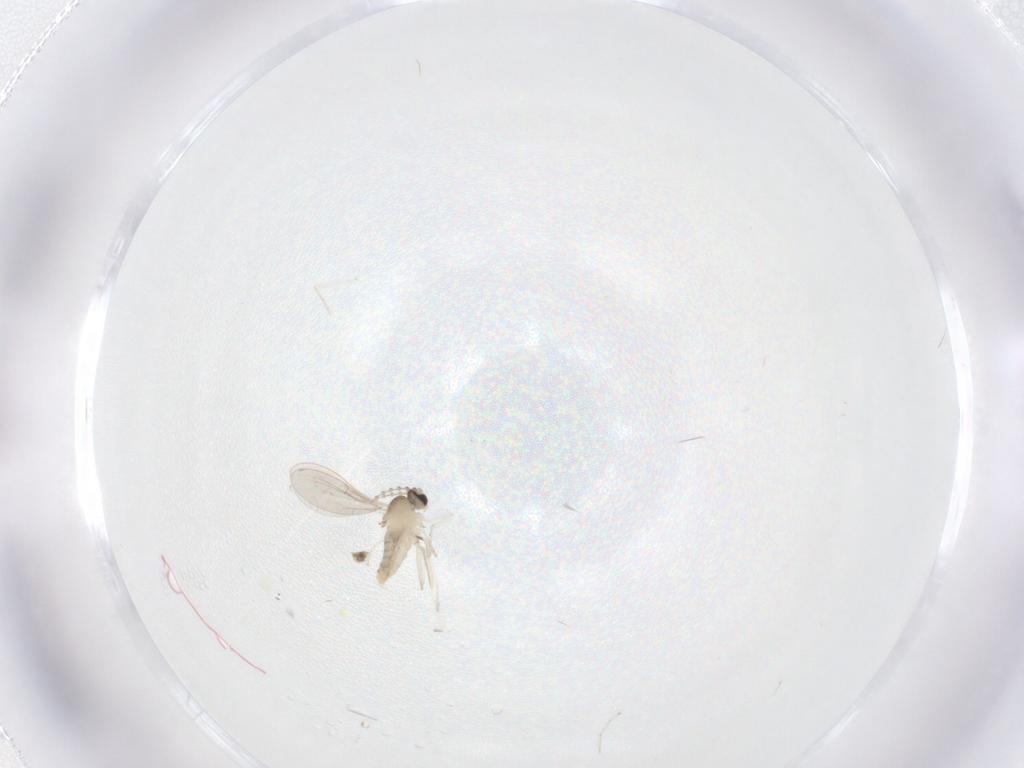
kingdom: Animalia
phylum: Arthropoda
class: Insecta
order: Diptera
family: Cecidomyiidae
